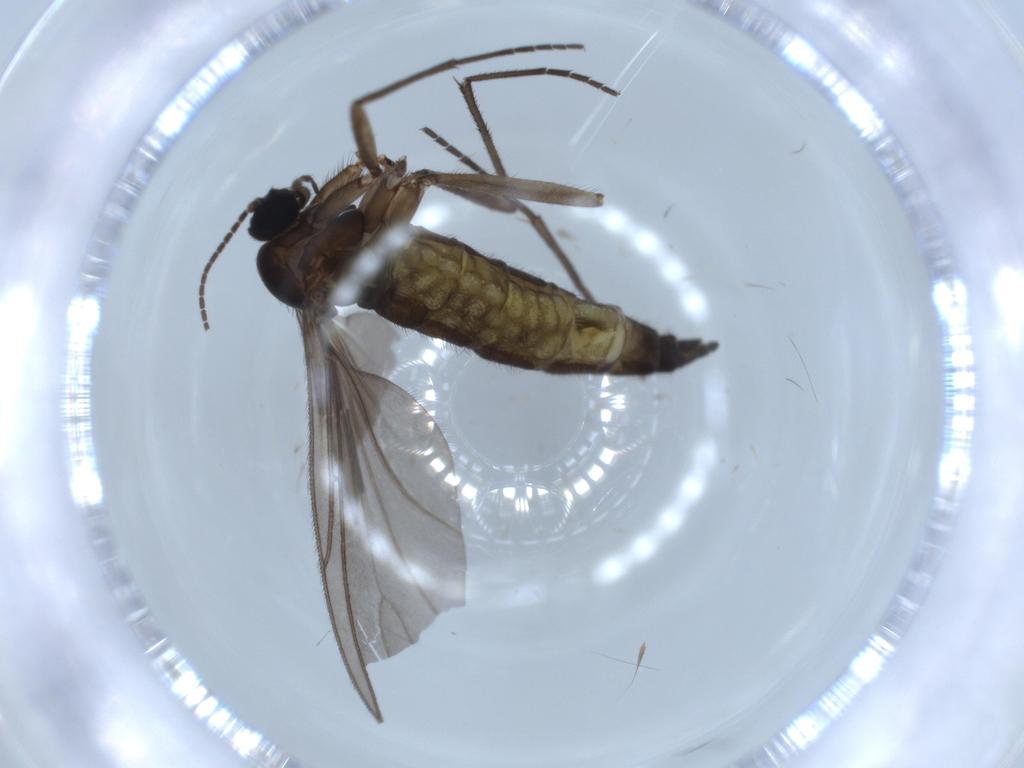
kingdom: Animalia
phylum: Arthropoda
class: Insecta
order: Diptera
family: Sciaridae
